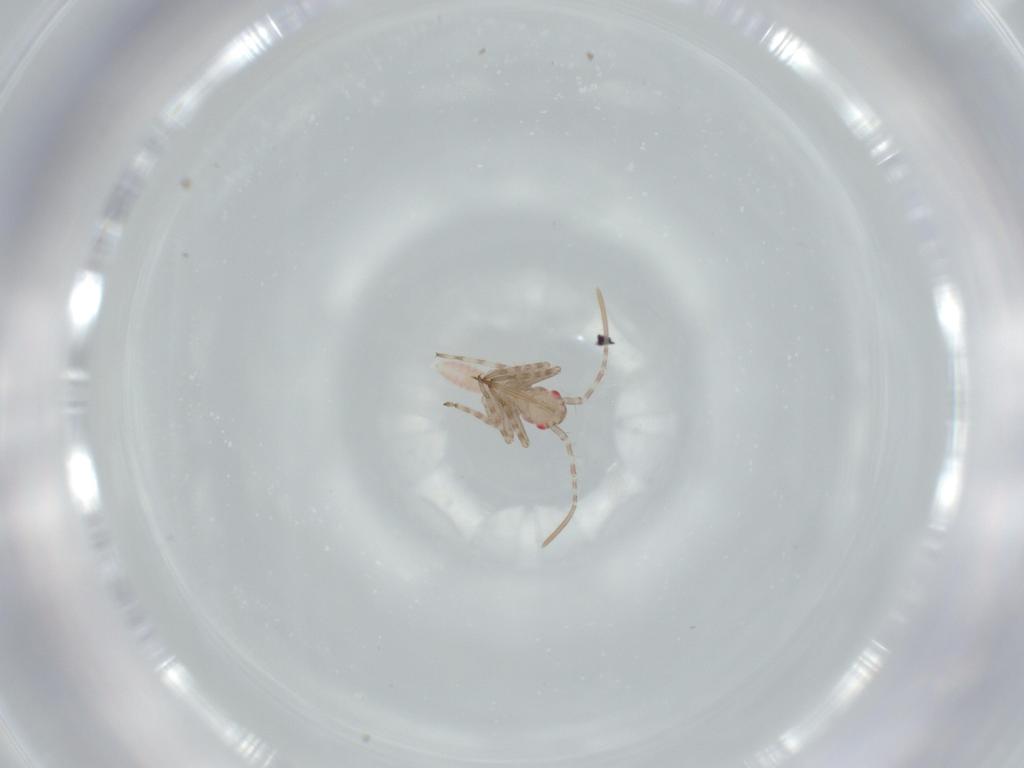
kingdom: Animalia
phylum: Arthropoda
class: Insecta
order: Hemiptera
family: Miridae
